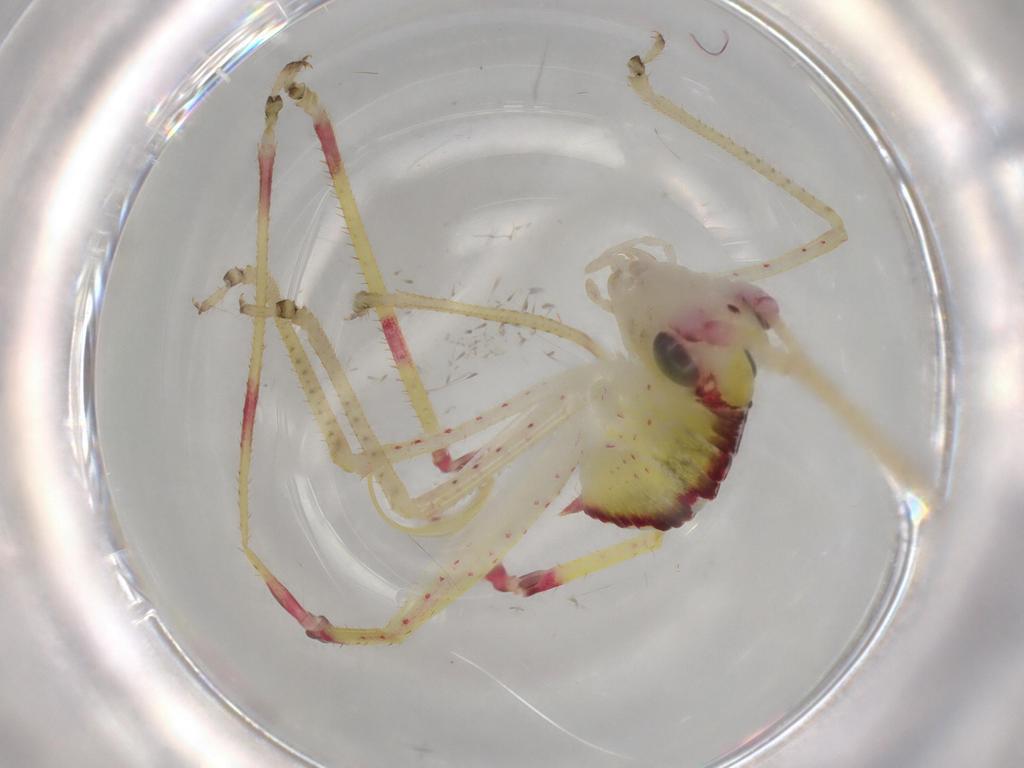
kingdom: Animalia
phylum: Arthropoda
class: Insecta
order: Orthoptera
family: Tettigoniidae
